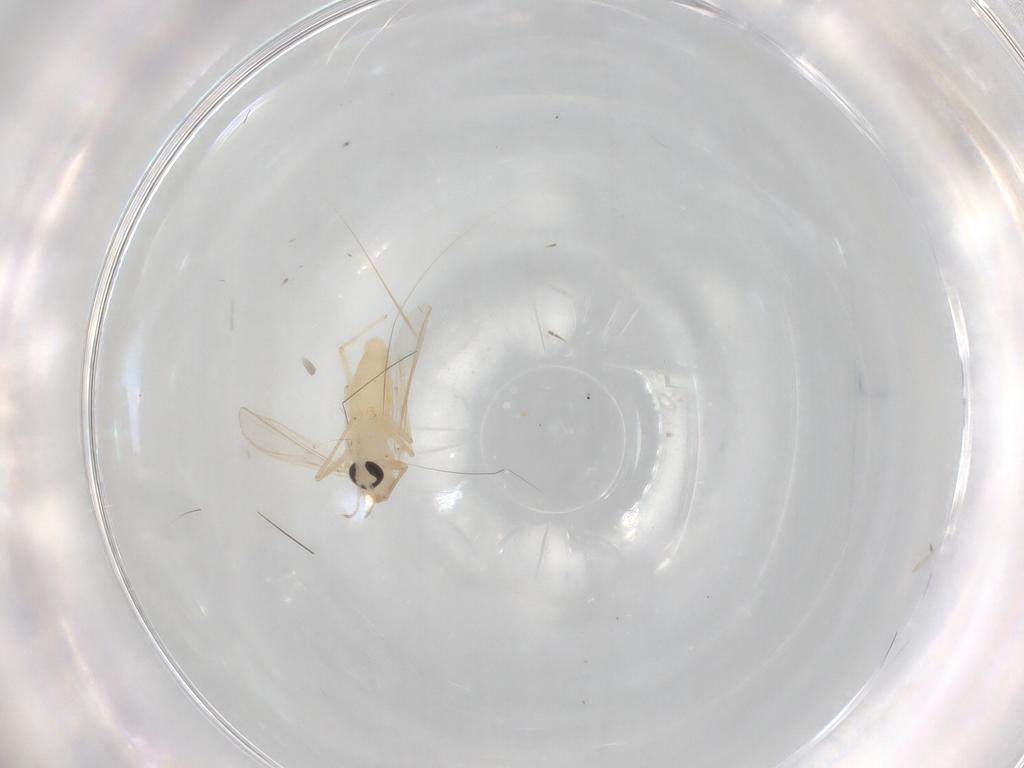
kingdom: Animalia
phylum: Arthropoda
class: Insecta
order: Diptera
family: Chironomidae
